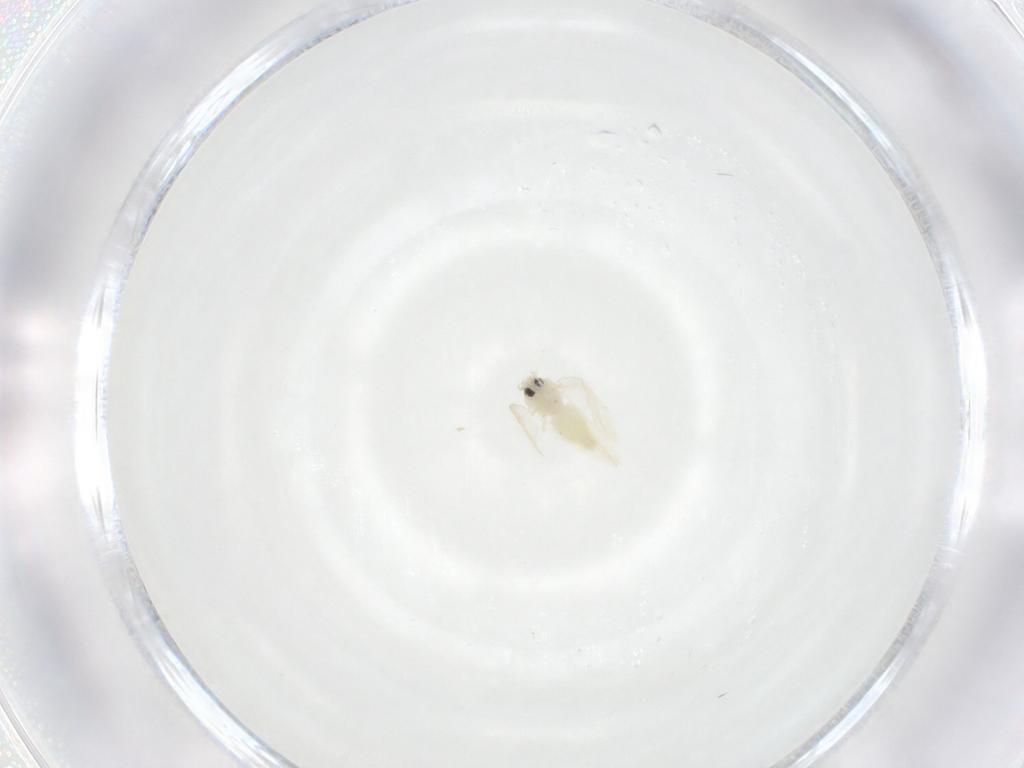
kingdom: Animalia
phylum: Arthropoda
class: Insecta
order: Hemiptera
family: Aleyrodidae
